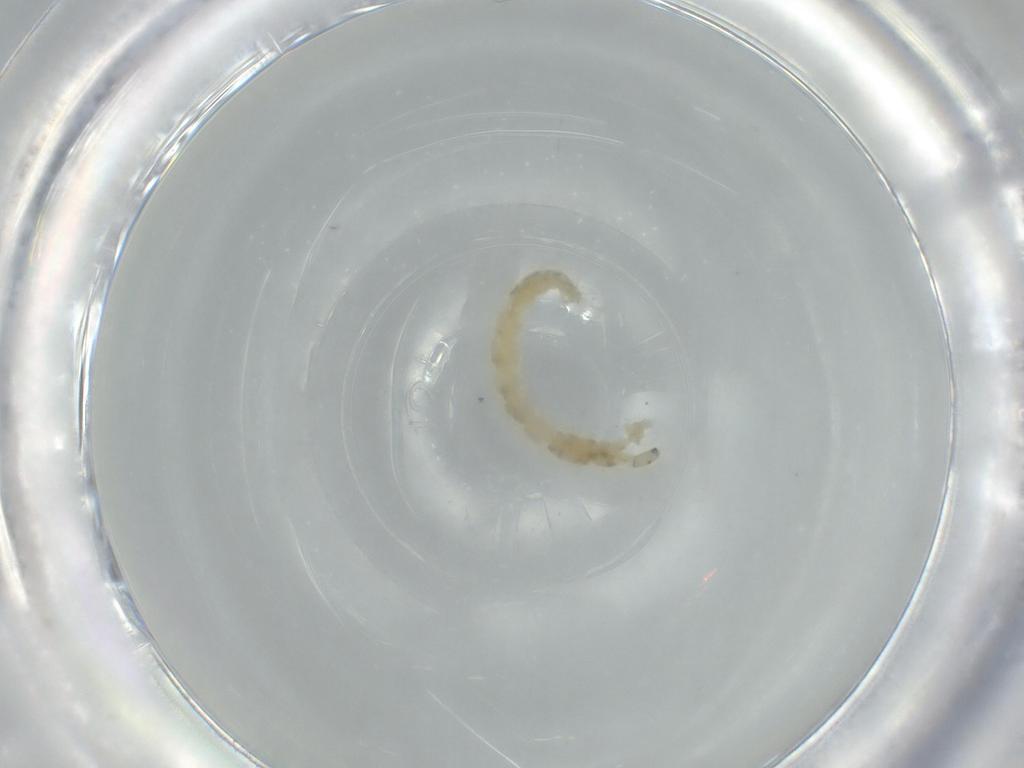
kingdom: Animalia
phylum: Arthropoda
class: Insecta
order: Diptera
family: Chironomidae
